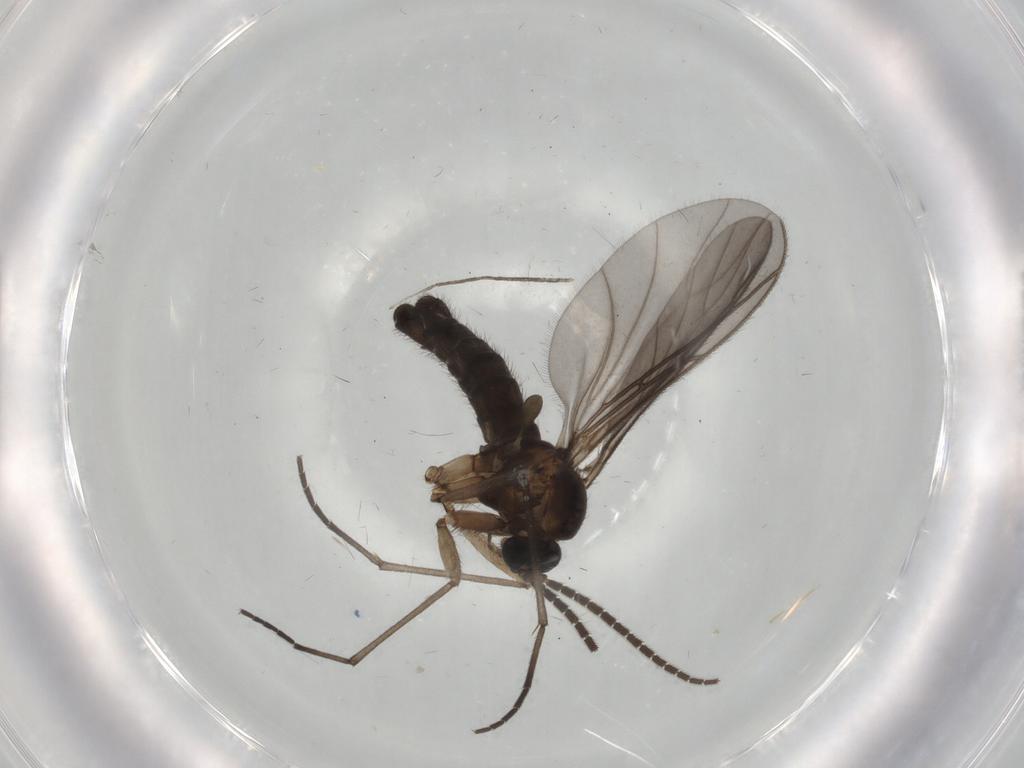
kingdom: Animalia
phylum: Arthropoda
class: Insecta
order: Diptera
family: Sciaridae
